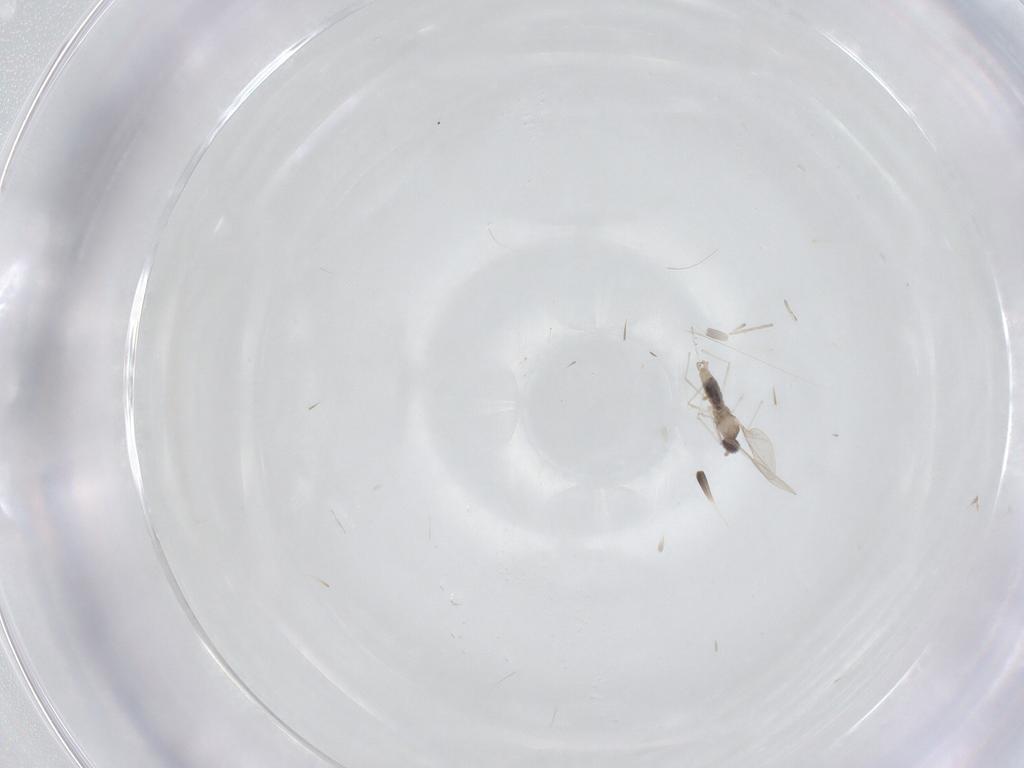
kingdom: Animalia
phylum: Arthropoda
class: Insecta
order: Diptera
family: Cecidomyiidae
